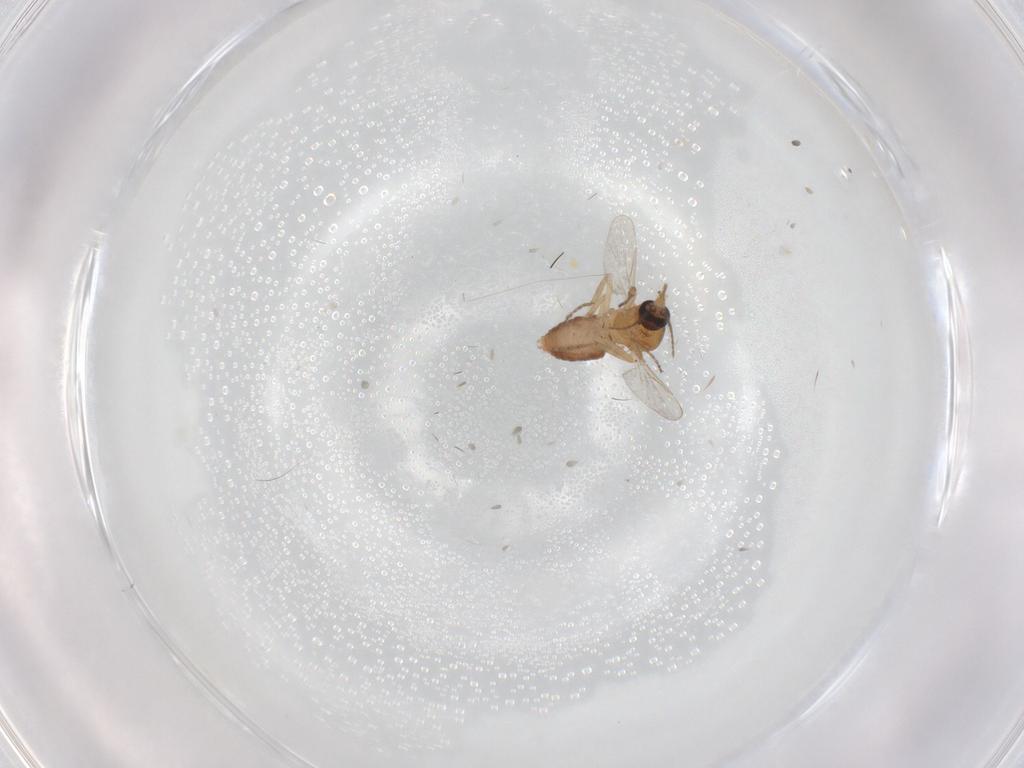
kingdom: Animalia
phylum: Arthropoda
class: Insecta
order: Diptera
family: Ceratopogonidae
